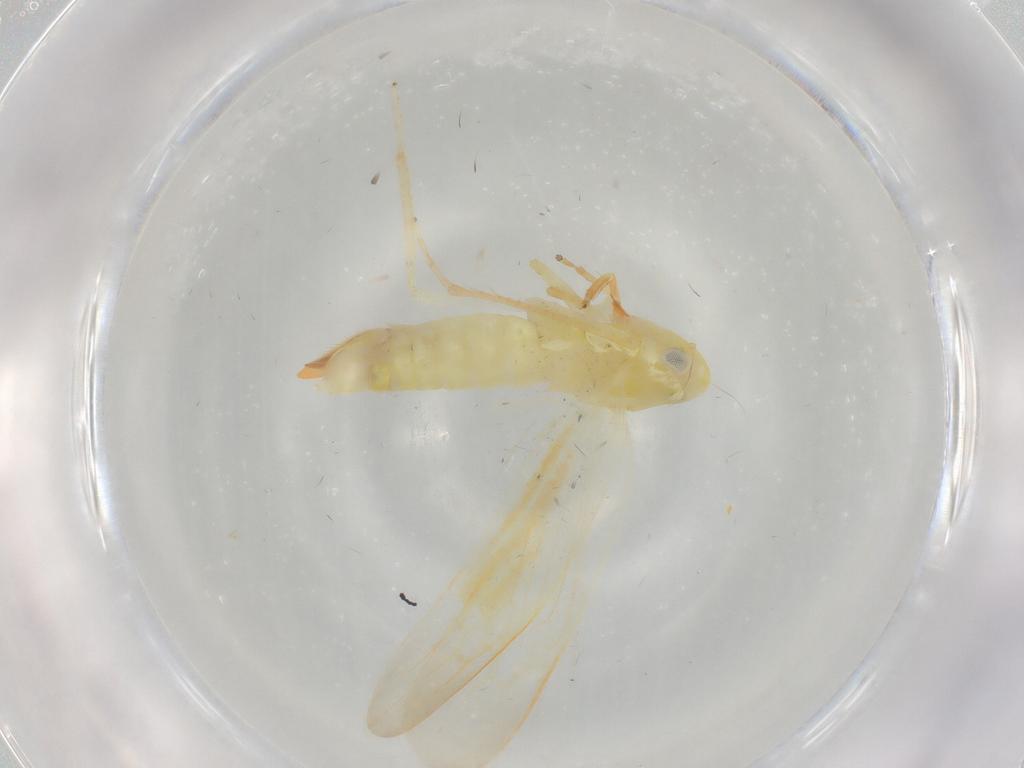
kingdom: Animalia
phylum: Arthropoda
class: Insecta
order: Hemiptera
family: Cicadellidae
